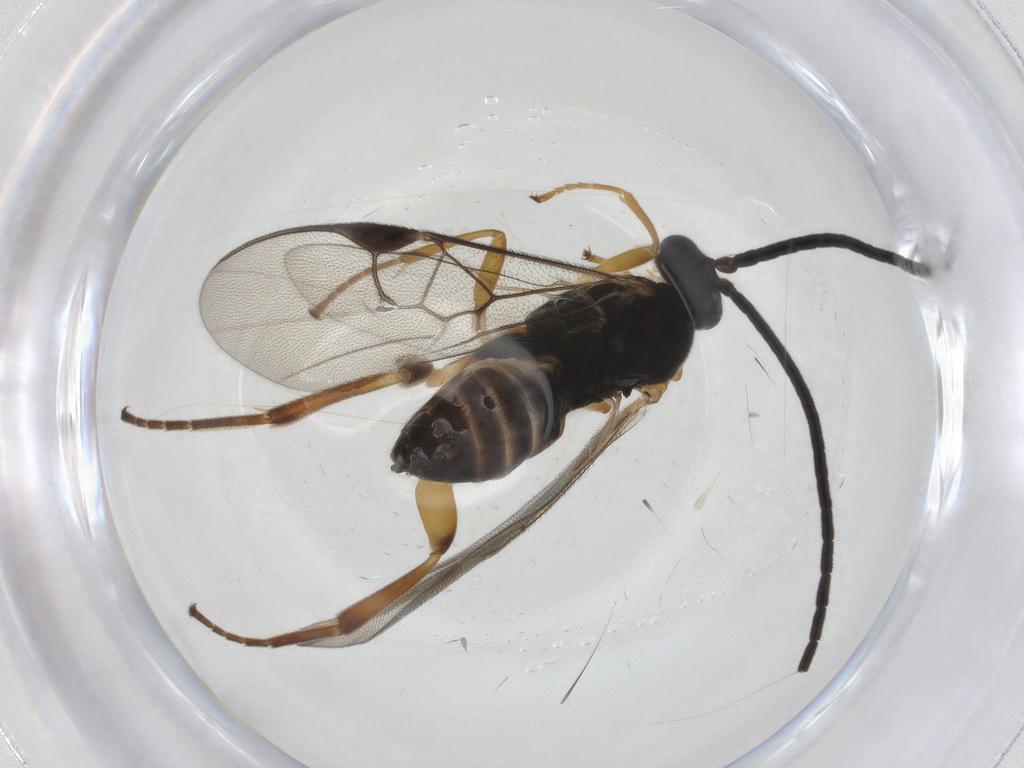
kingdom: Animalia
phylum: Arthropoda
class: Insecta
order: Hymenoptera
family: Braconidae
